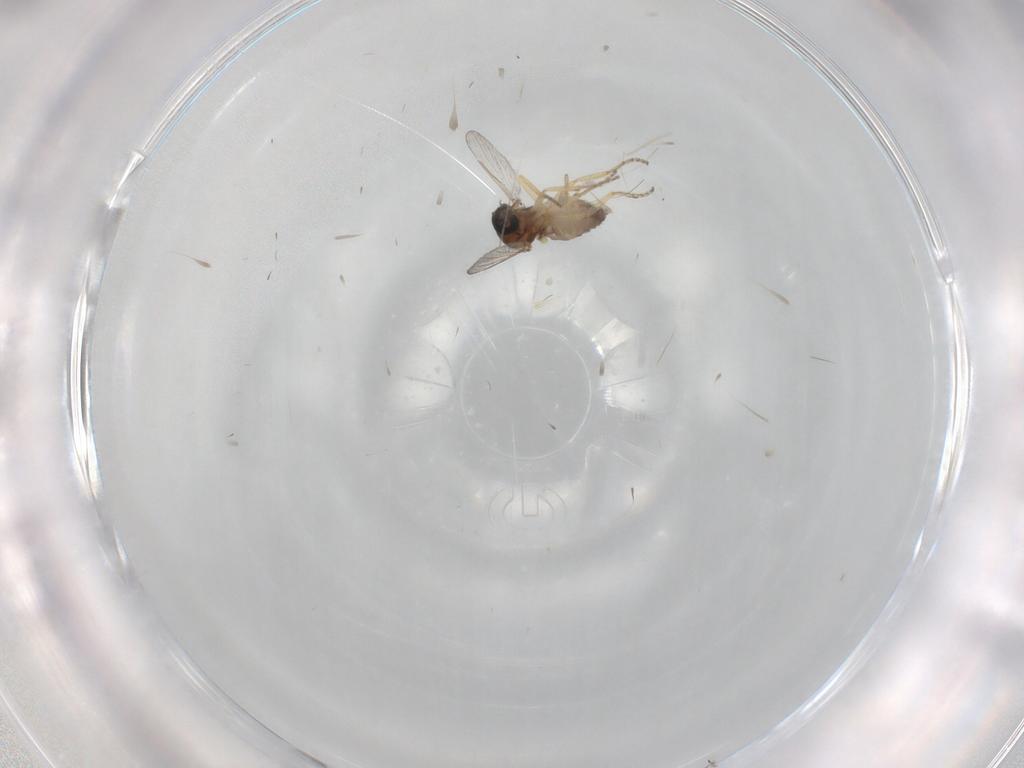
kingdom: Animalia
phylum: Arthropoda
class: Insecta
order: Diptera
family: Ceratopogonidae
